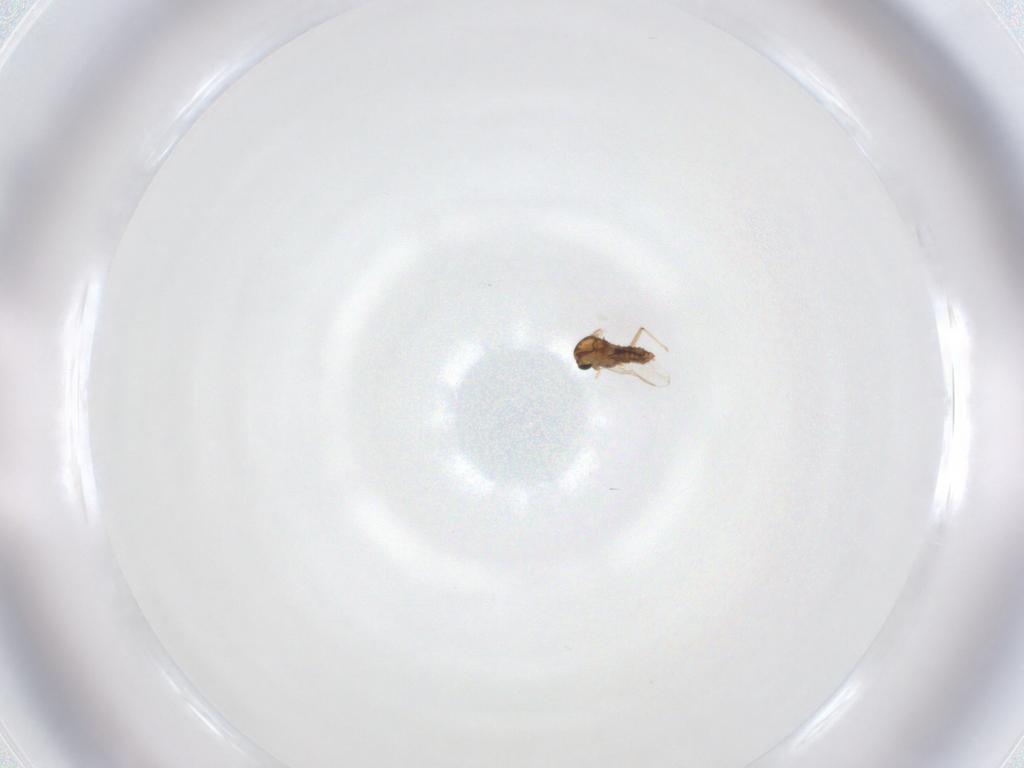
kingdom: Animalia
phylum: Arthropoda
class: Insecta
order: Diptera
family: Chironomidae
